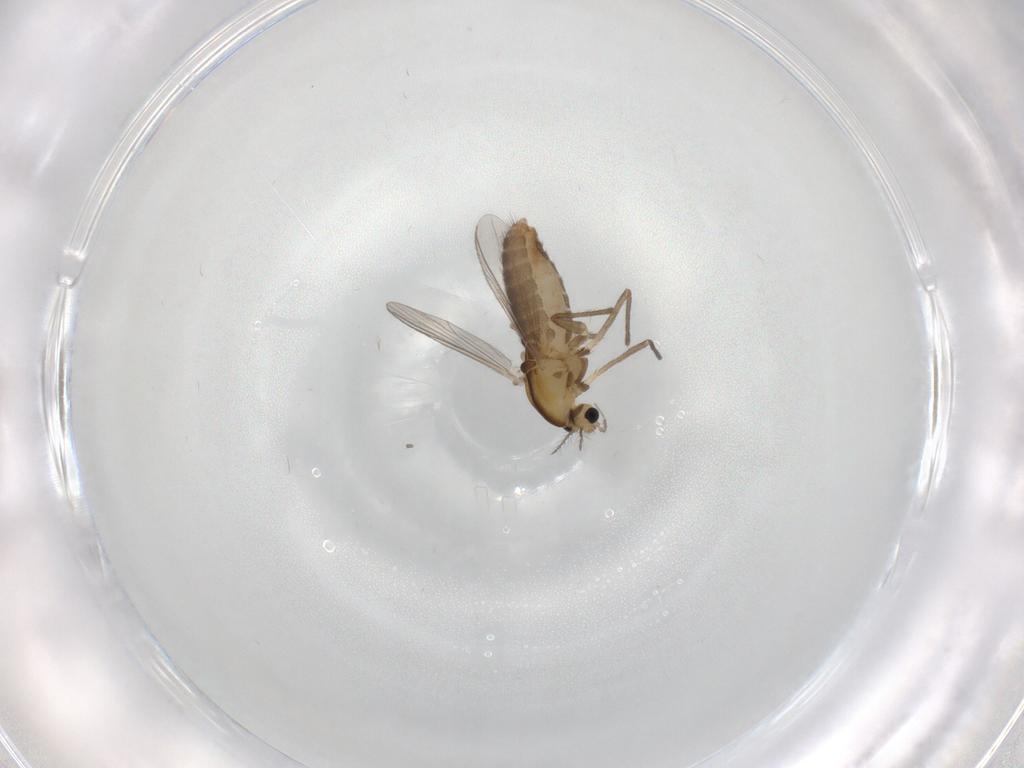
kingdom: Animalia
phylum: Arthropoda
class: Insecta
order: Diptera
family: Chironomidae
